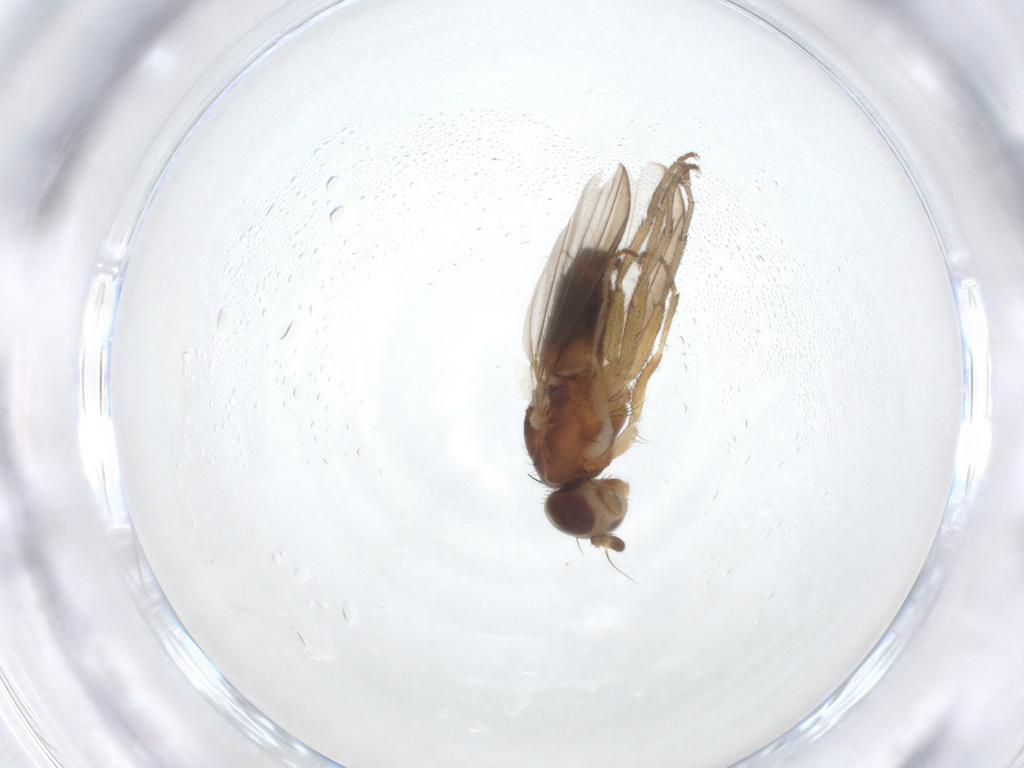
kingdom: Animalia
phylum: Arthropoda
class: Insecta
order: Diptera
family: Heleomyzidae
